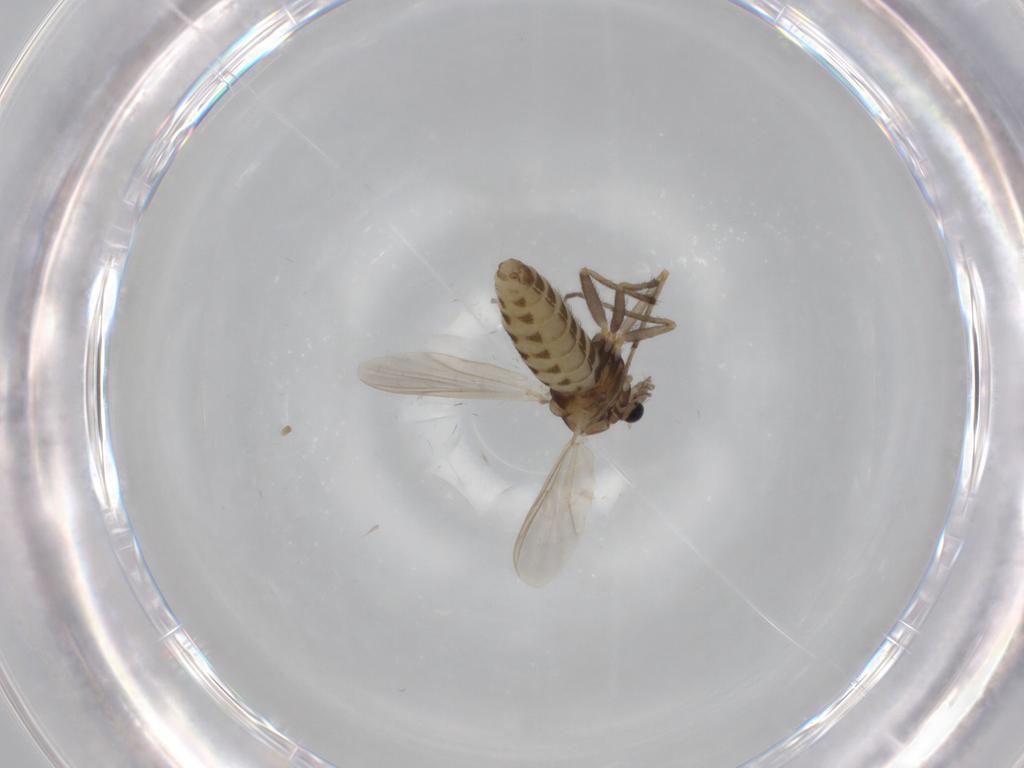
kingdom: Animalia
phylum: Arthropoda
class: Insecta
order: Diptera
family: Chironomidae
